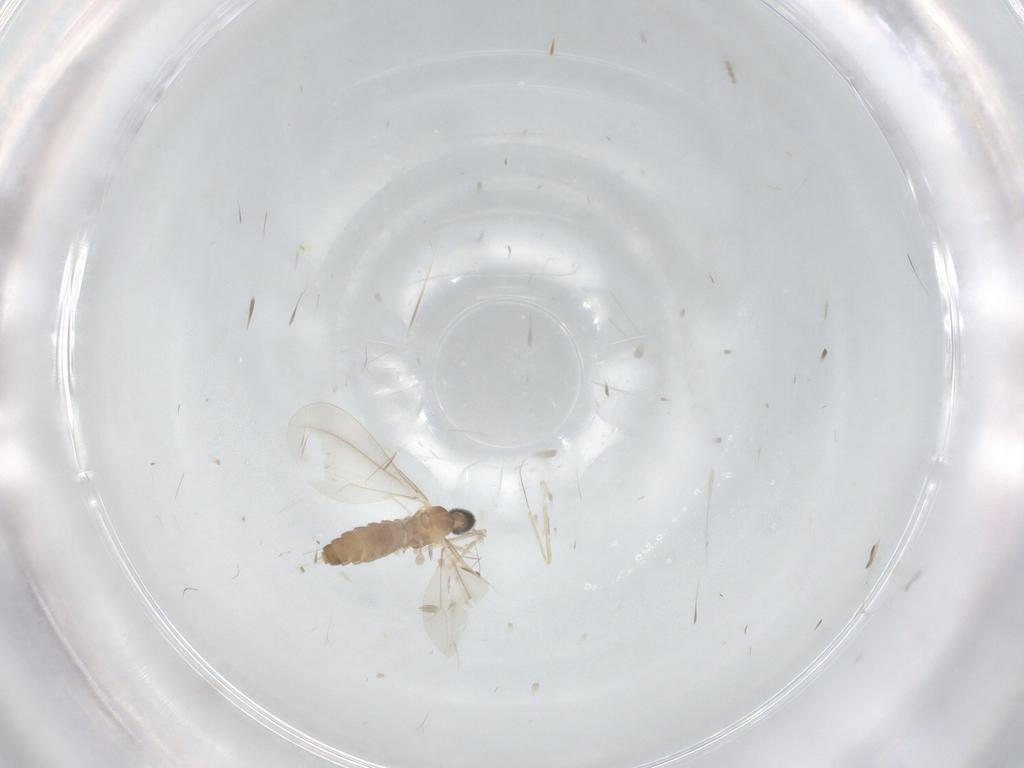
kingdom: Animalia
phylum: Arthropoda
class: Insecta
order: Diptera
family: Cecidomyiidae
